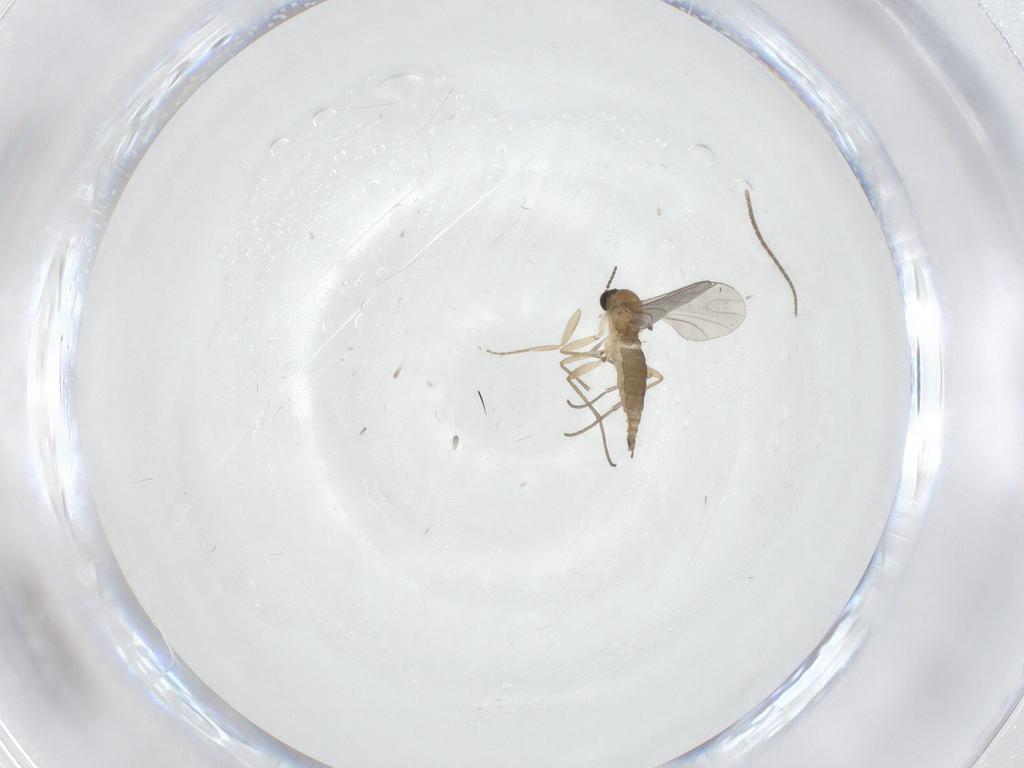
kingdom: Animalia
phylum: Arthropoda
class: Insecta
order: Diptera
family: Sciaridae
